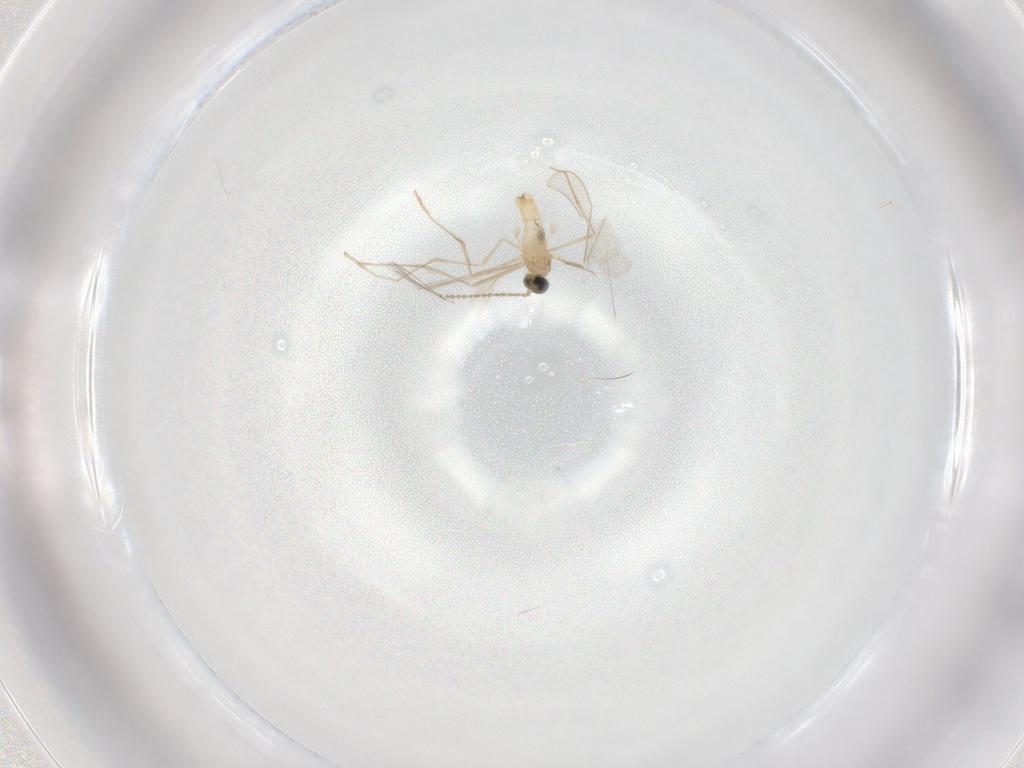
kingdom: Animalia
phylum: Arthropoda
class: Insecta
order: Diptera
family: Cecidomyiidae
